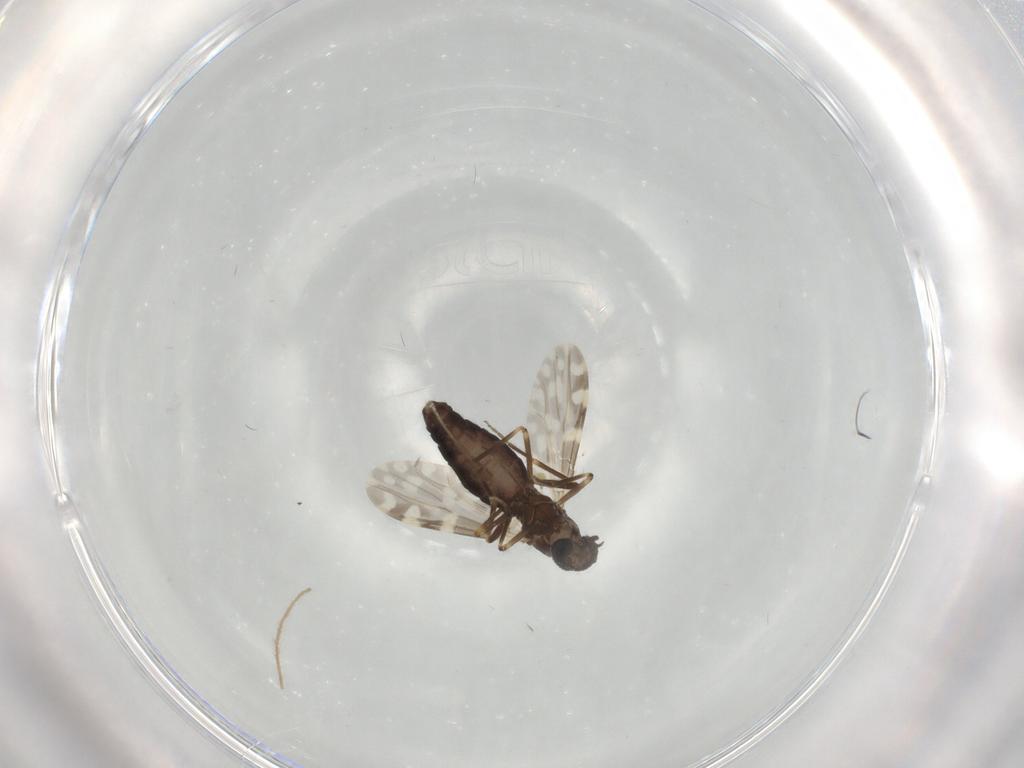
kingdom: Animalia
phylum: Arthropoda
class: Insecta
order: Diptera
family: Ceratopogonidae
